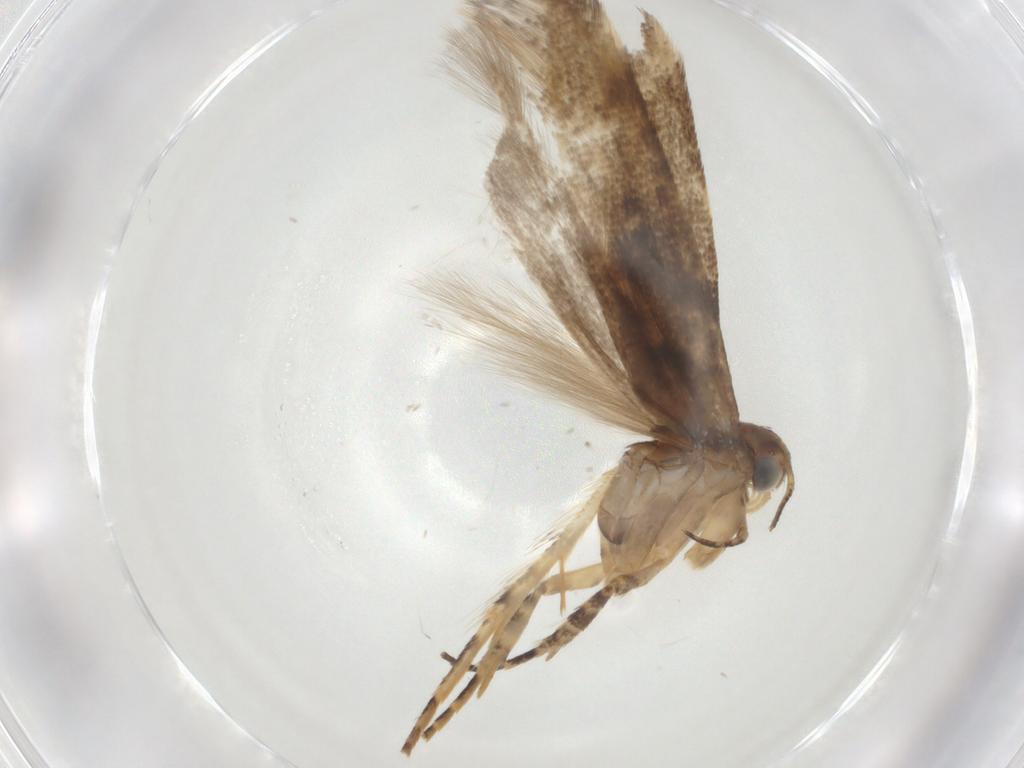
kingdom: Animalia
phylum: Arthropoda
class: Insecta
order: Lepidoptera
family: Gelechiidae
